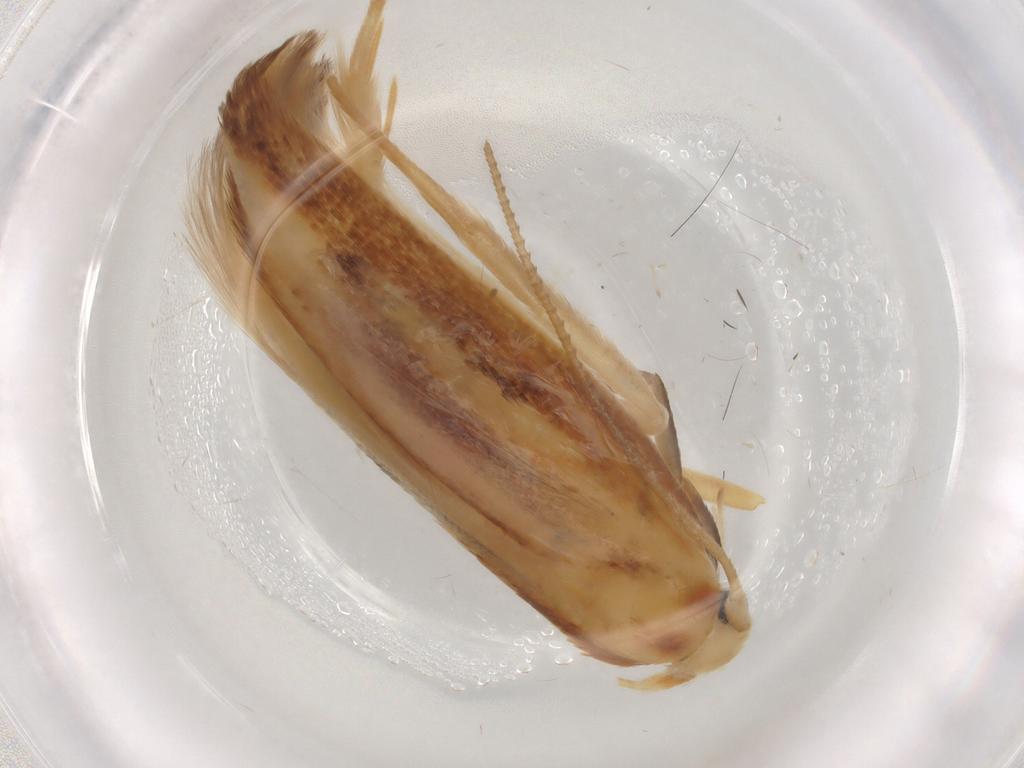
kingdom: Animalia
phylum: Arthropoda
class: Insecta
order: Lepidoptera
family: Geometridae
